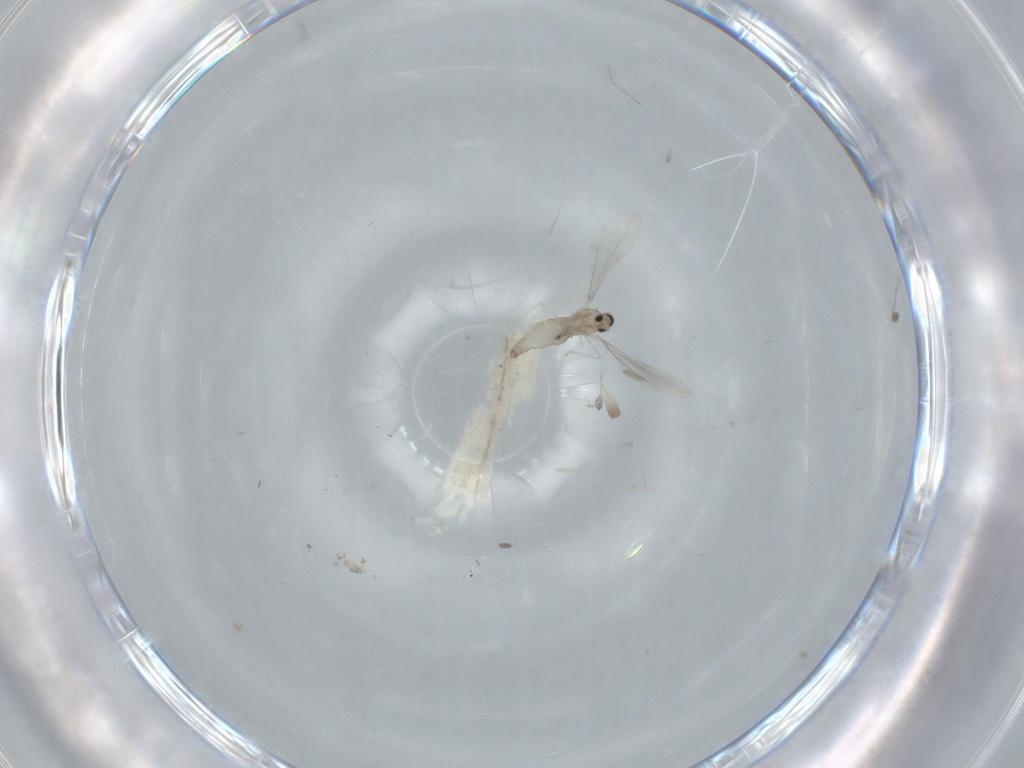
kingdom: Animalia
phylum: Arthropoda
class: Insecta
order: Diptera
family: Cecidomyiidae
